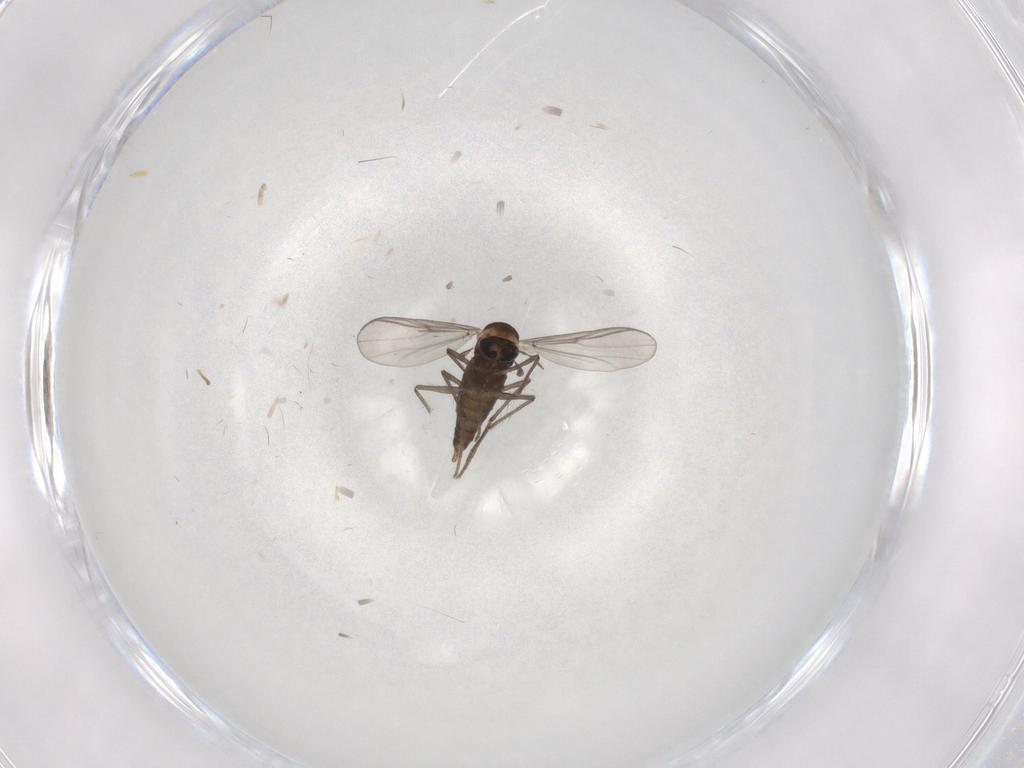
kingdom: Animalia
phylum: Arthropoda
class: Insecta
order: Diptera
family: Chironomidae
